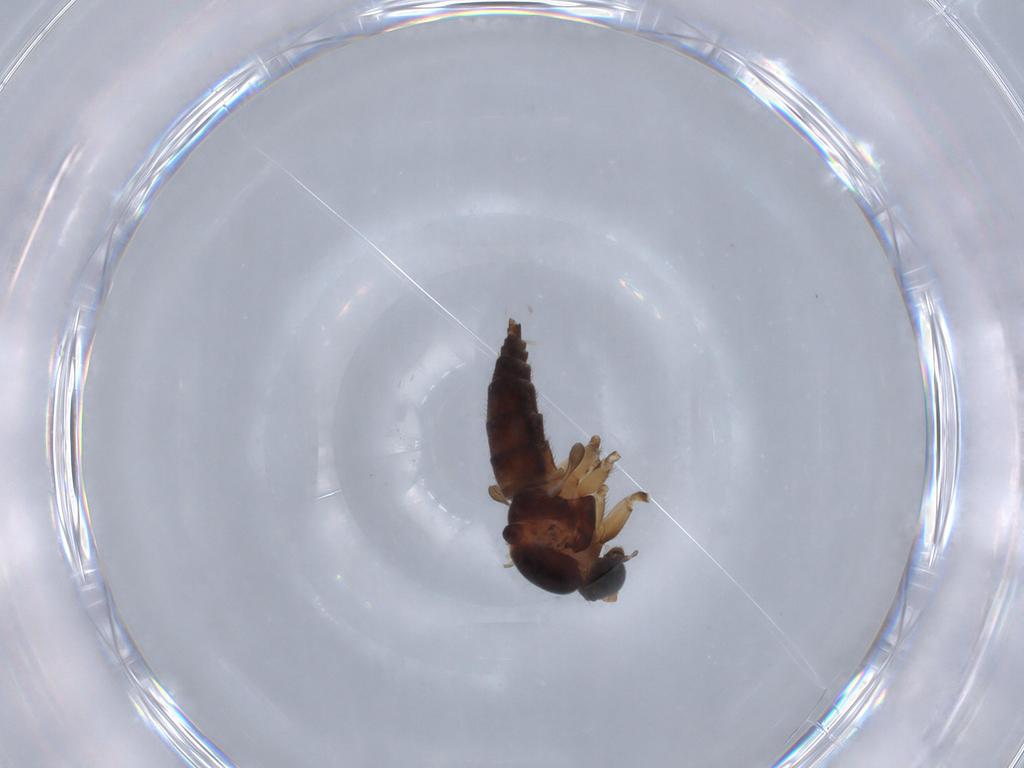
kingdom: Animalia
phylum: Arthropoda
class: Insecta
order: Diptera
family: Sciaridae
